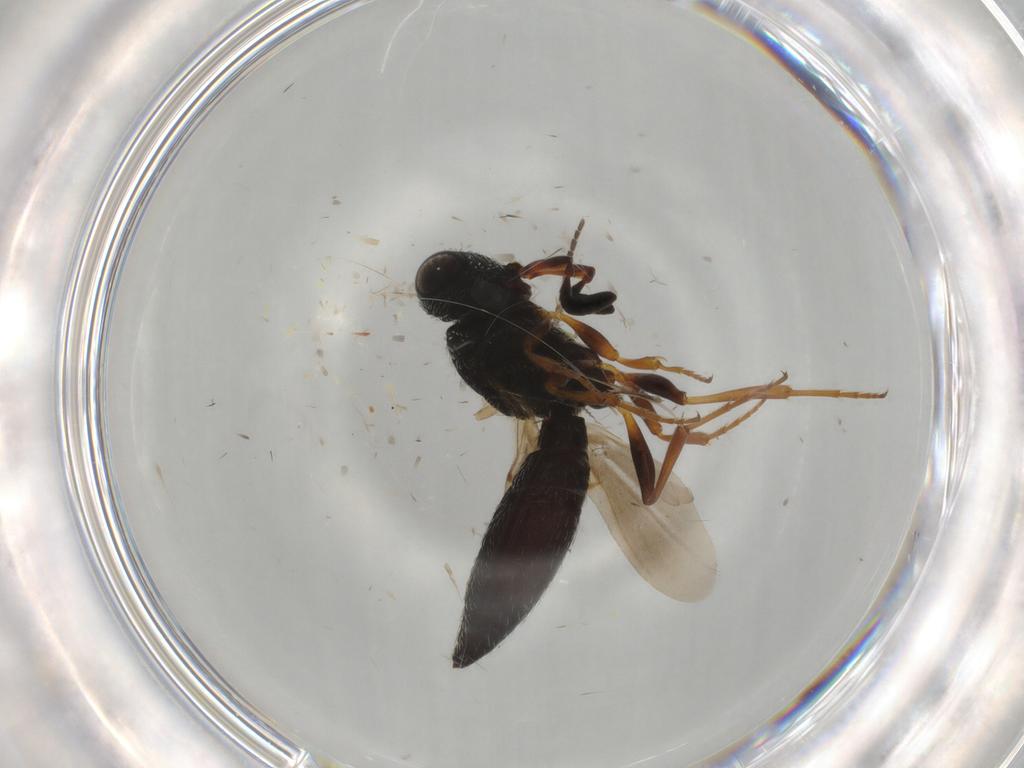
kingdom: Animalia
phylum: Arthropoda
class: Insecta
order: Hymenoptera
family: Scelionidae
